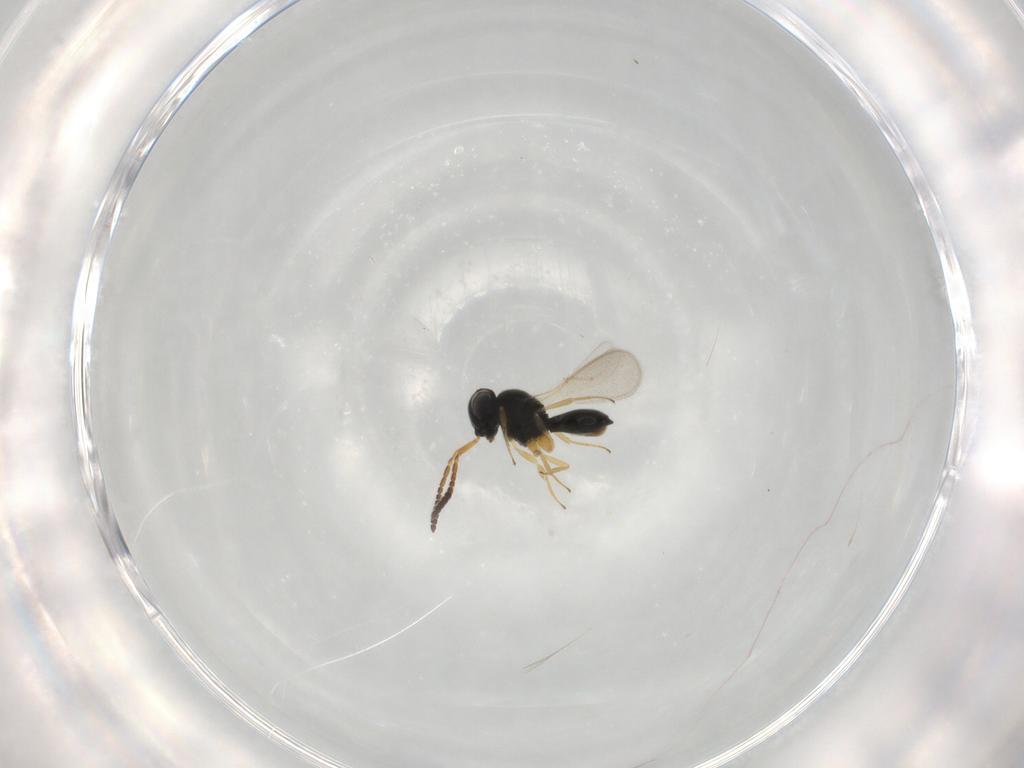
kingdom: Animalia
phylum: Arthropoda
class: Insecta
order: Hymenoptera
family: Scelionidae
